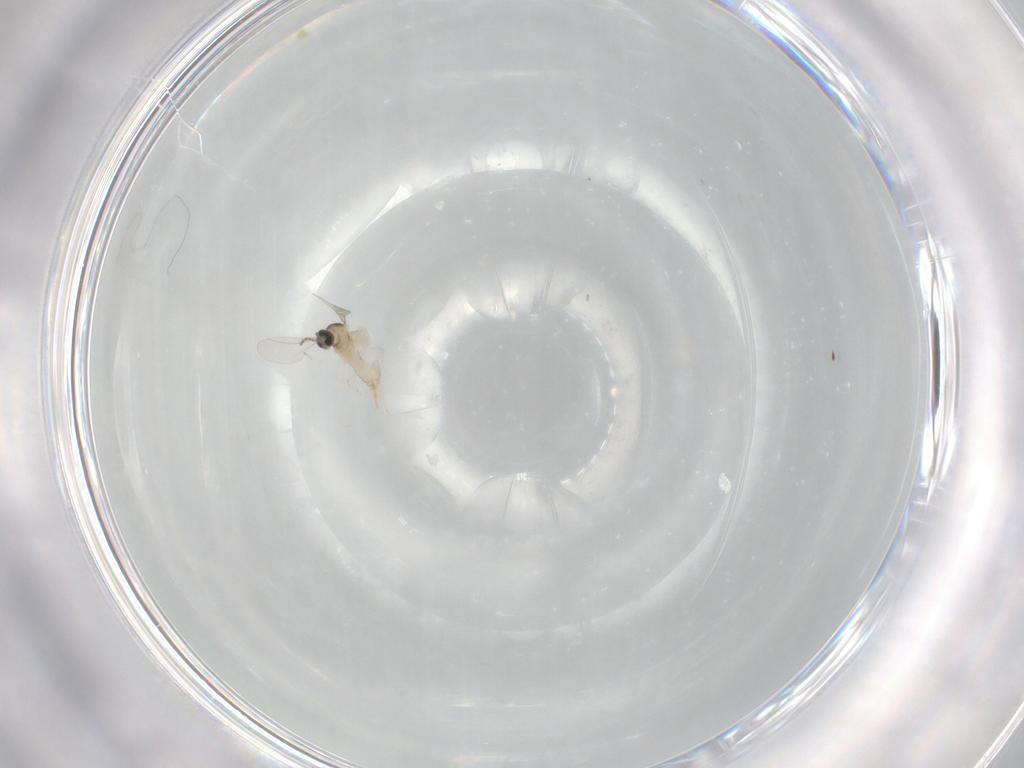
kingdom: Animalia
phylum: Arthropoda
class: Insecta
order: Diptera
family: Cecidomyiidae
